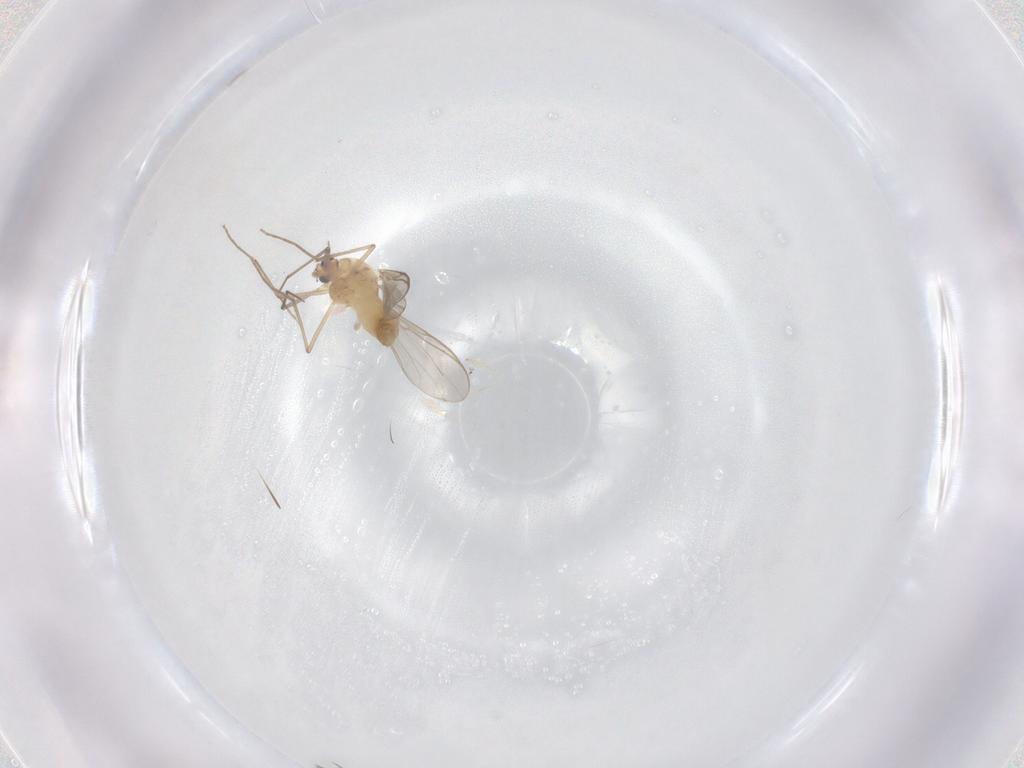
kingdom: Animalia
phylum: Arthropoda
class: Insecta
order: Diptera
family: Chironomidae
